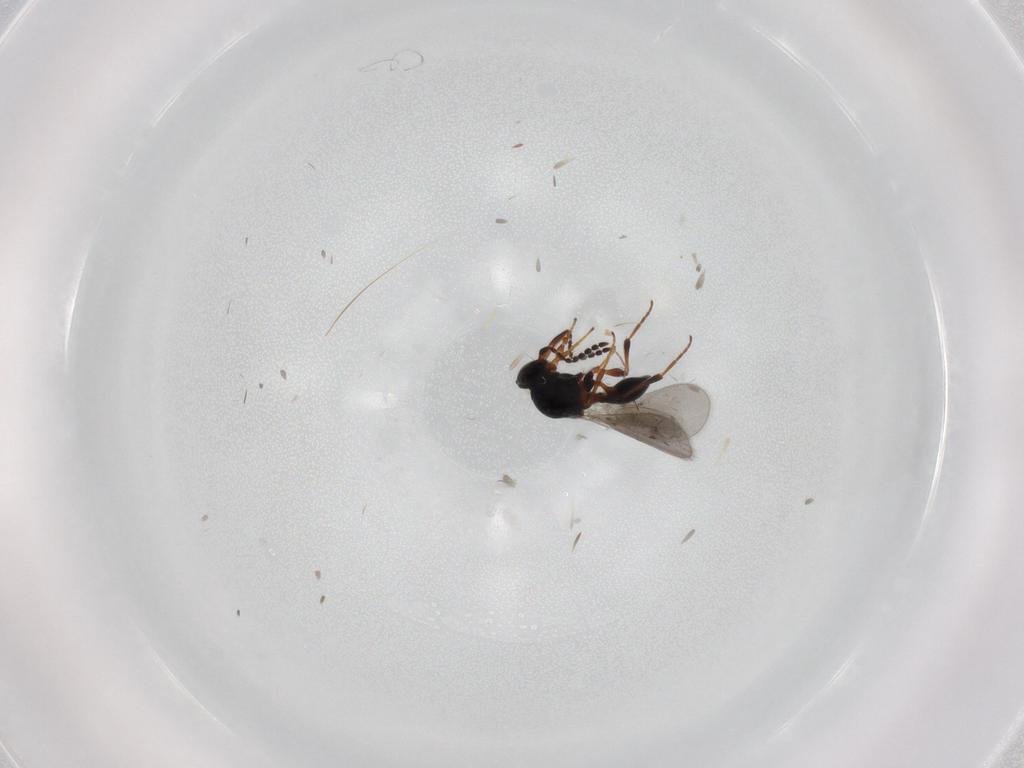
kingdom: Animalia
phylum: Arthropoda
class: Insecta
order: Hymenoptera
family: Platygastridae
